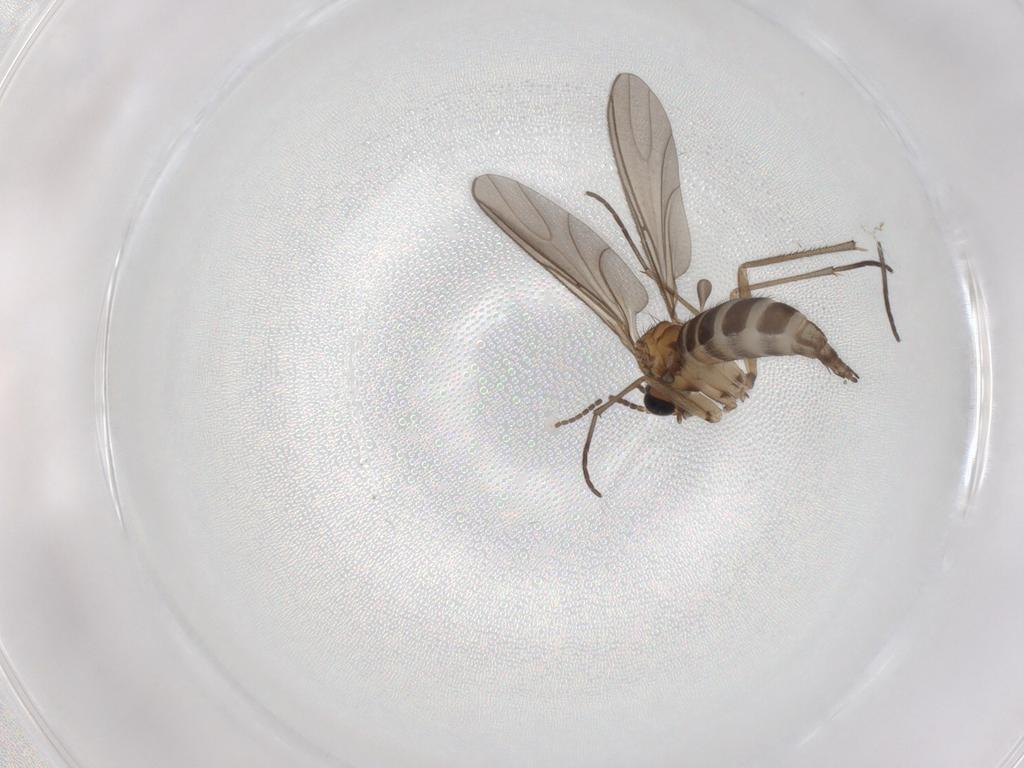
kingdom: Animalia
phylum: Arthropoda
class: Insecta
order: Diptera
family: Sciaridae
